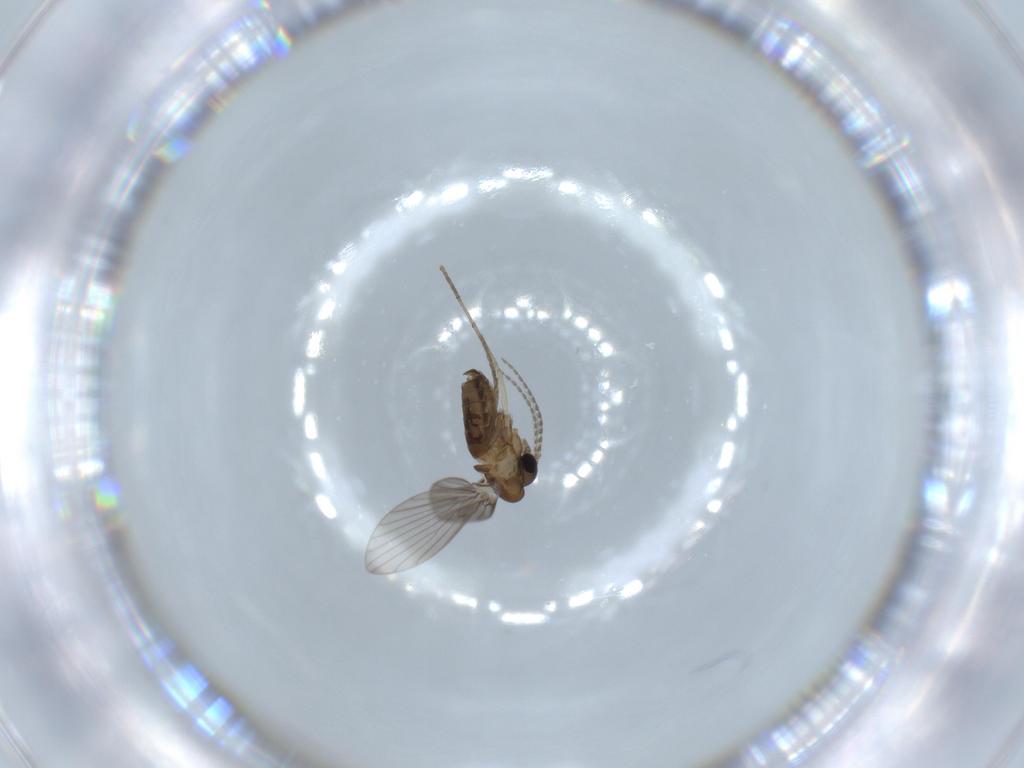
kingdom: Animalia
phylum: Arthropoda
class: Insecta
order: Diptera
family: Psychodidae
